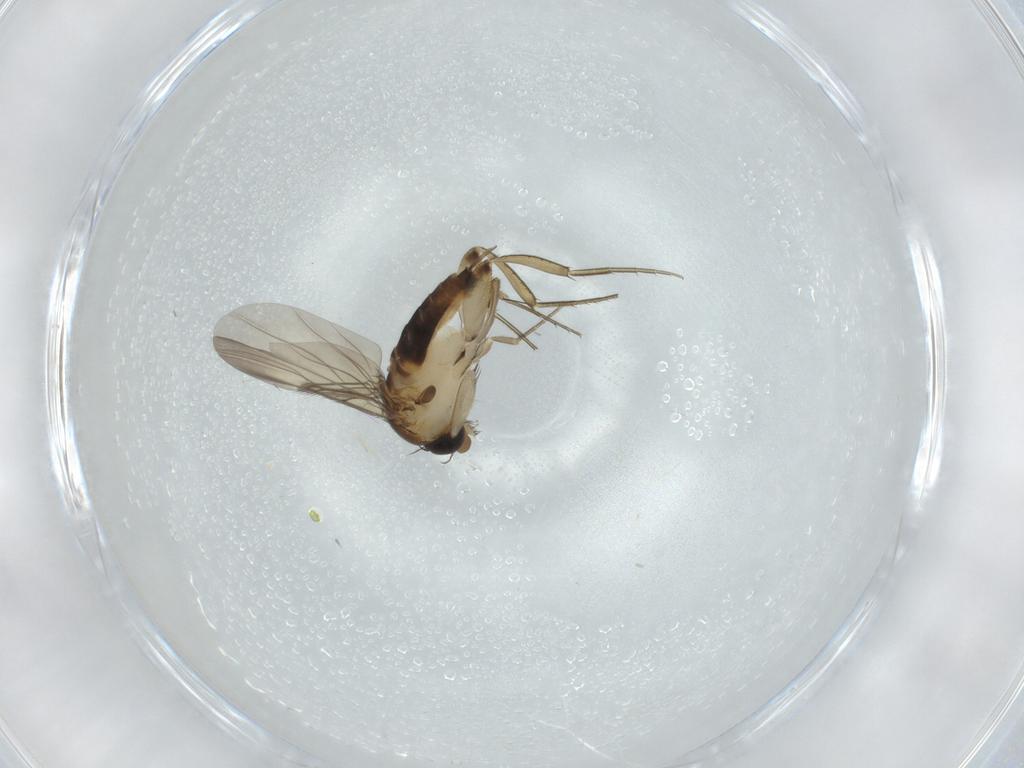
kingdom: Animalia
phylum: Arthropoda
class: Insecta
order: Diptera
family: Phoridae
